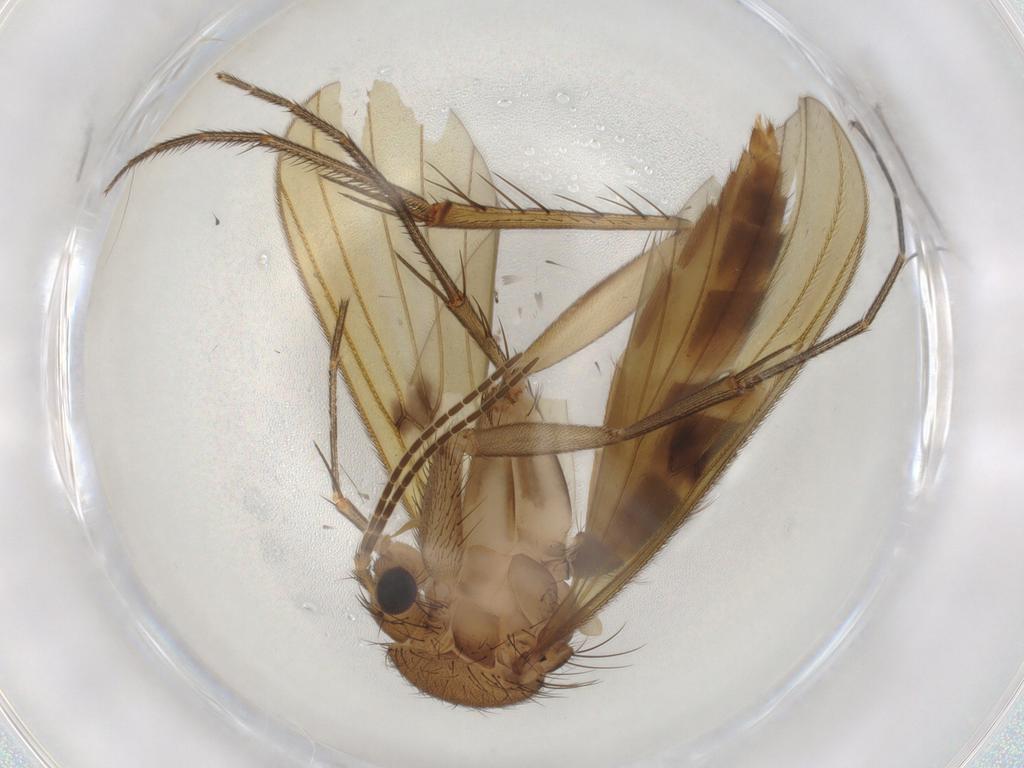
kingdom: Animalia
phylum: Arthropoda
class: Insecta
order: Diptera
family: Mycetophilidae
